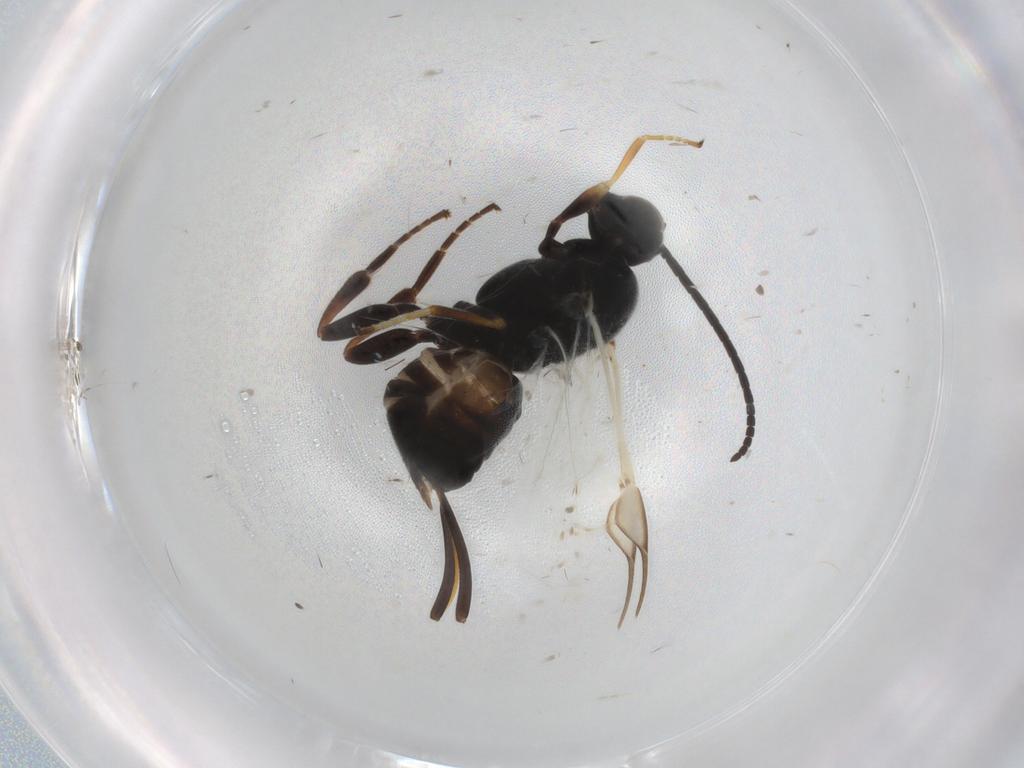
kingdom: Animalia
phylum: Arthropoda
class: Insecta
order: Hymenoptera
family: Braconidae
